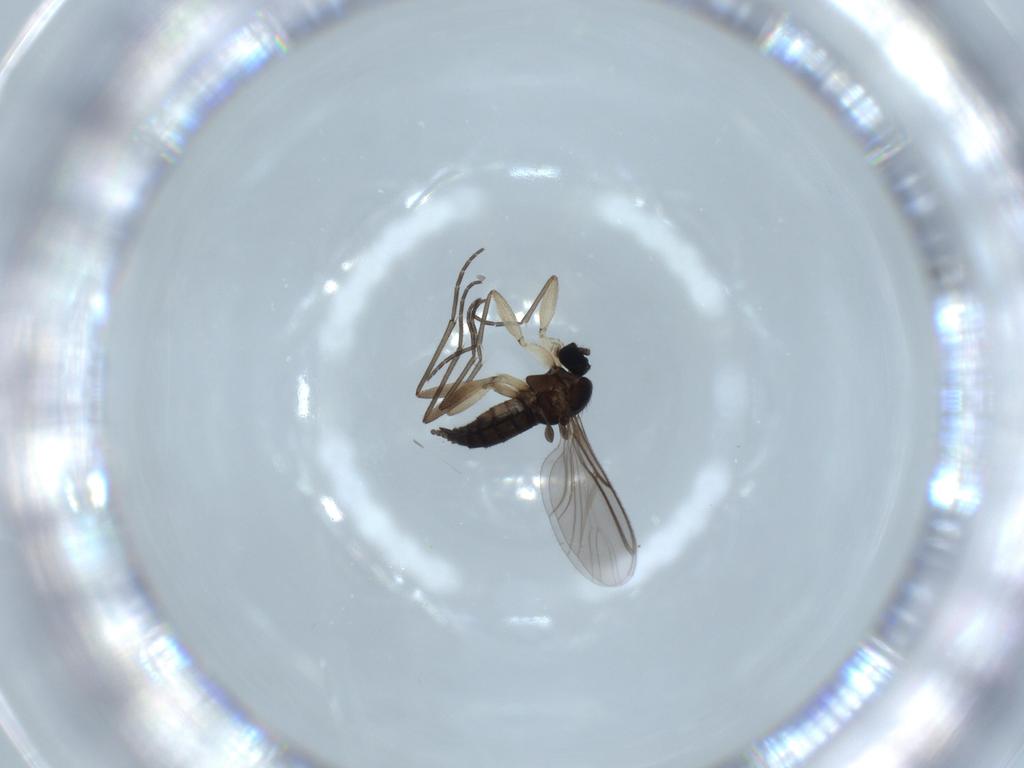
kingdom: Animalia
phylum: Arthropoda
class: Insecta
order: Diptera
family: Sciaridae
